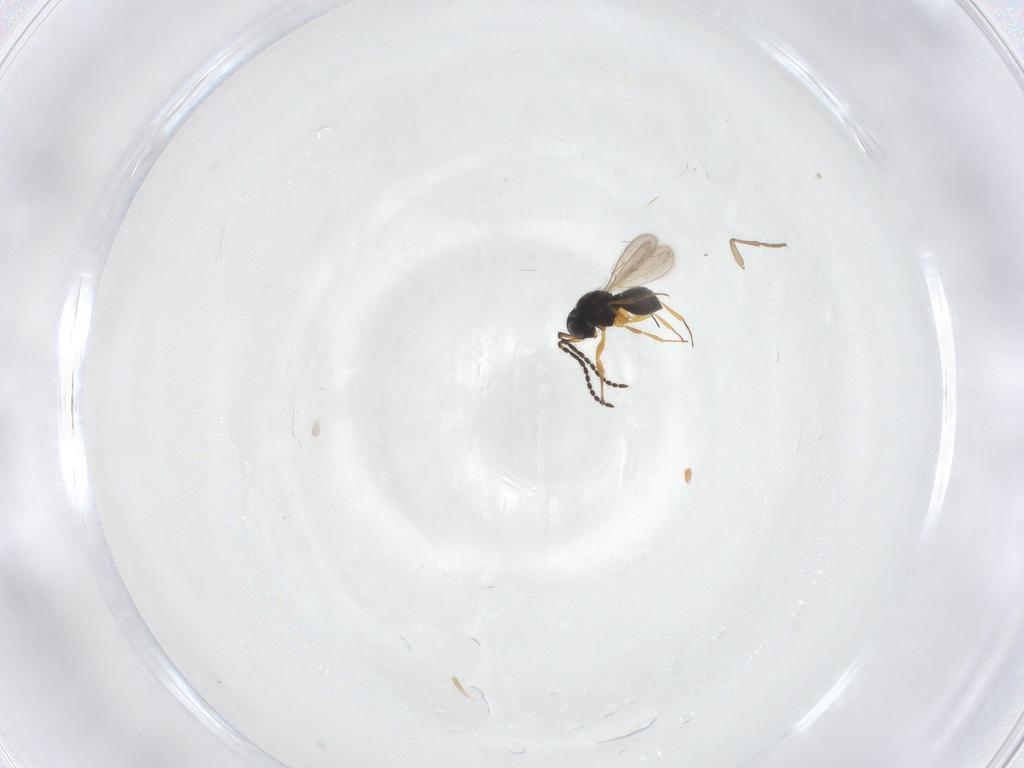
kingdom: Animalia
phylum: Arthropoda
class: Insecta
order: Hymenoptera
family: Scelionidae
